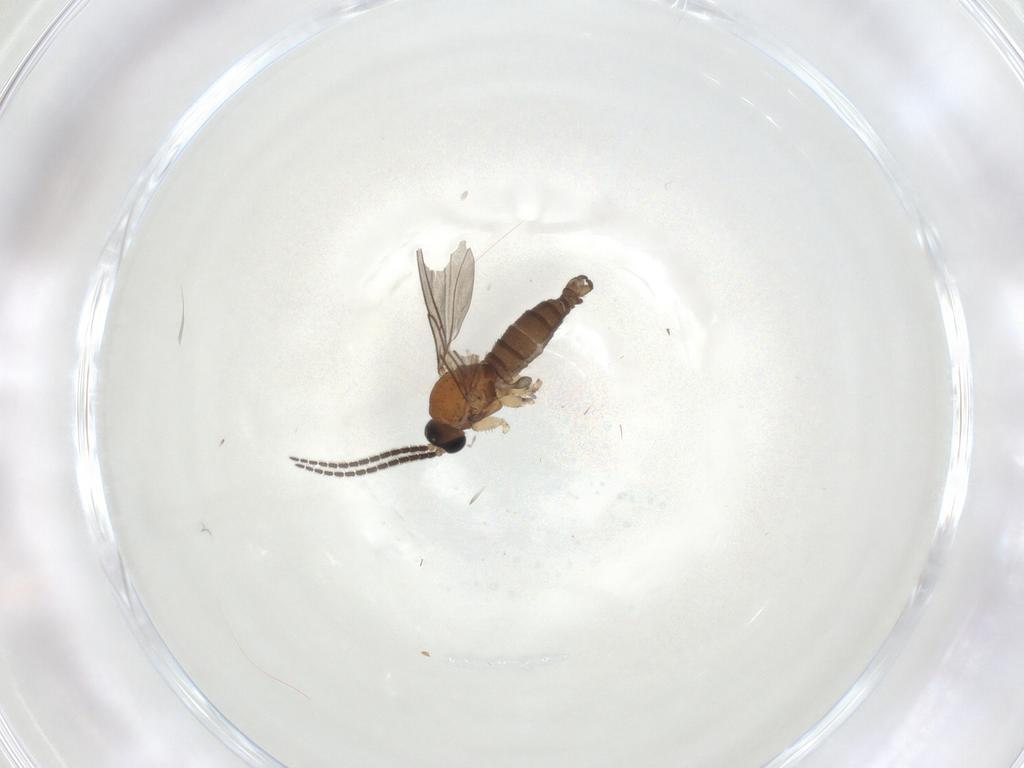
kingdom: Animalia
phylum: Arthropoda
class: Insecta
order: Diptera
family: Sciaridae
